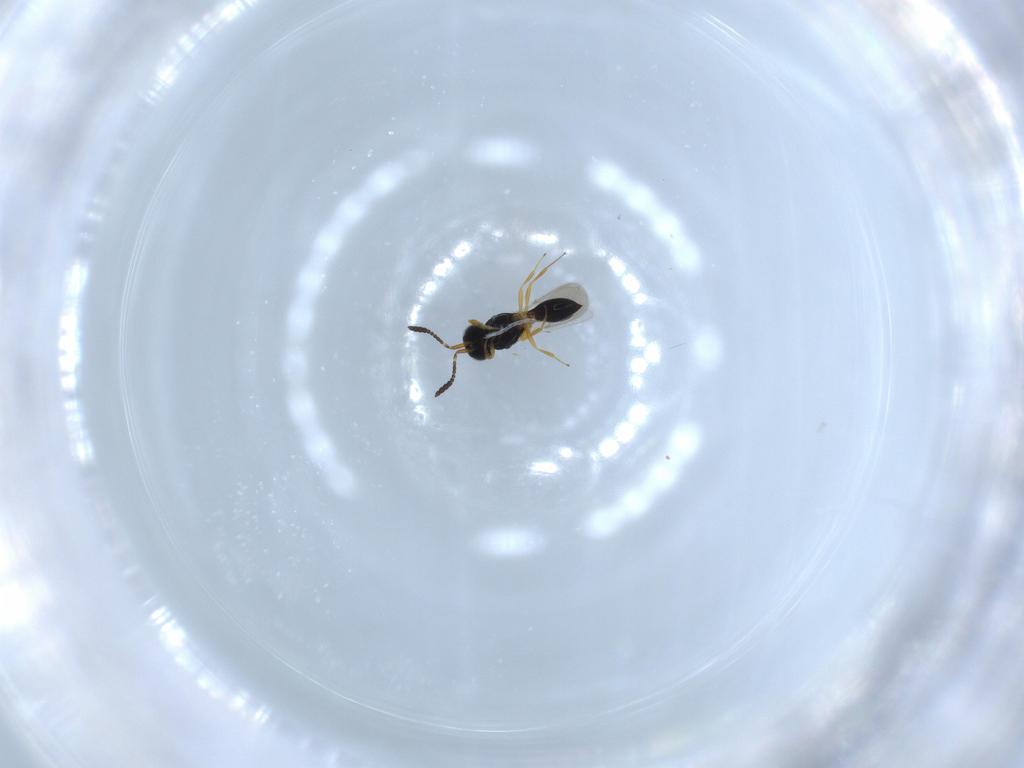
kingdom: Animalia
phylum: Arthropoda
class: Insecta
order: Hymenoptera
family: Scelionidae
